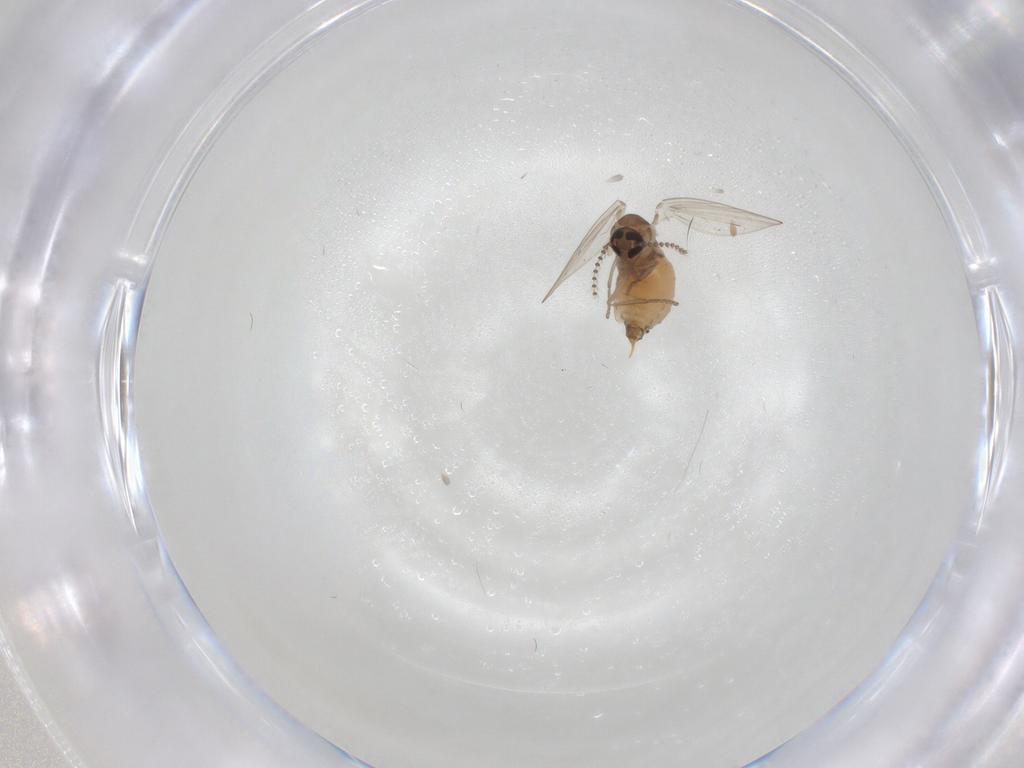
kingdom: Animalia
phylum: Arthropoda
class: Insecta
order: Diptera
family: Psychodidae
